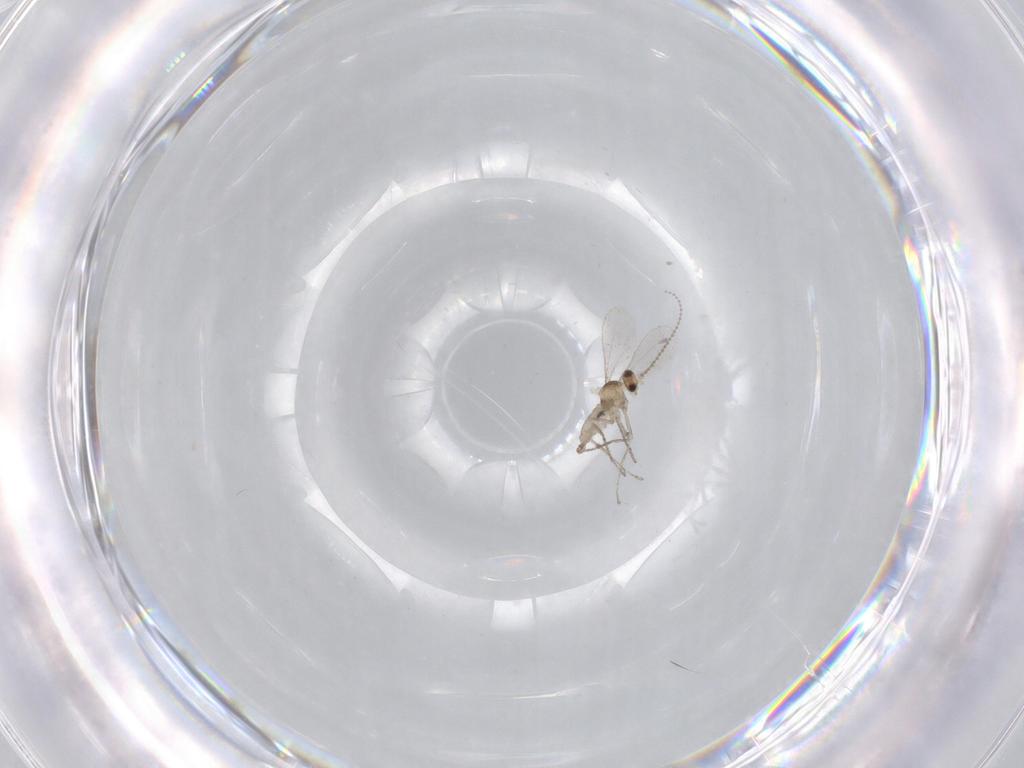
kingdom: Animalia
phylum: Arthropoda
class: Insecta
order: Diptera
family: Cecidomyiidae
